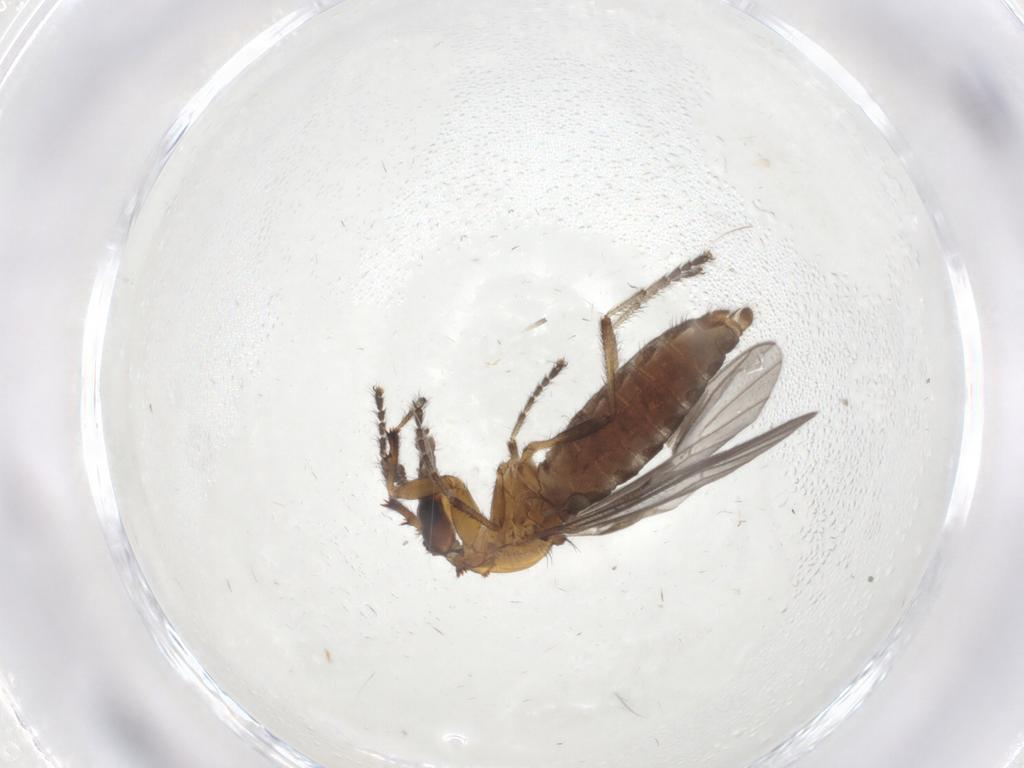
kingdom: Animalia
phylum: Arthropoda
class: Insecta
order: Diptera
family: Bibionidae
